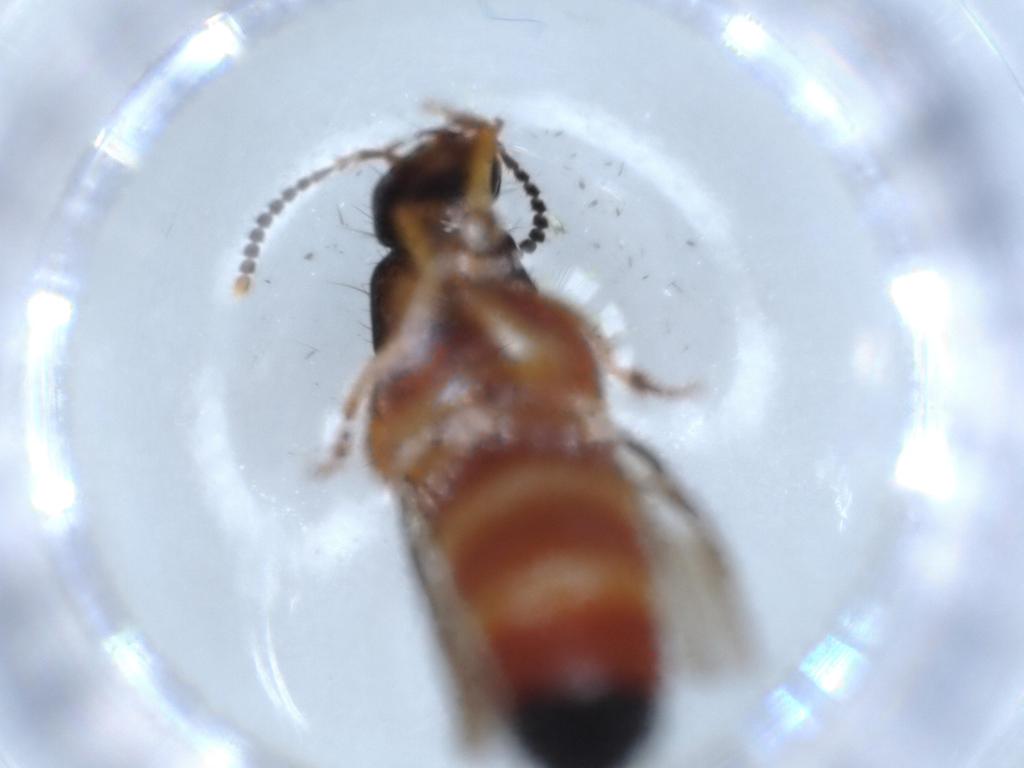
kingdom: Animalia
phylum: Arthropoda
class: Insecta
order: Coleoptera
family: Staphylinidae
